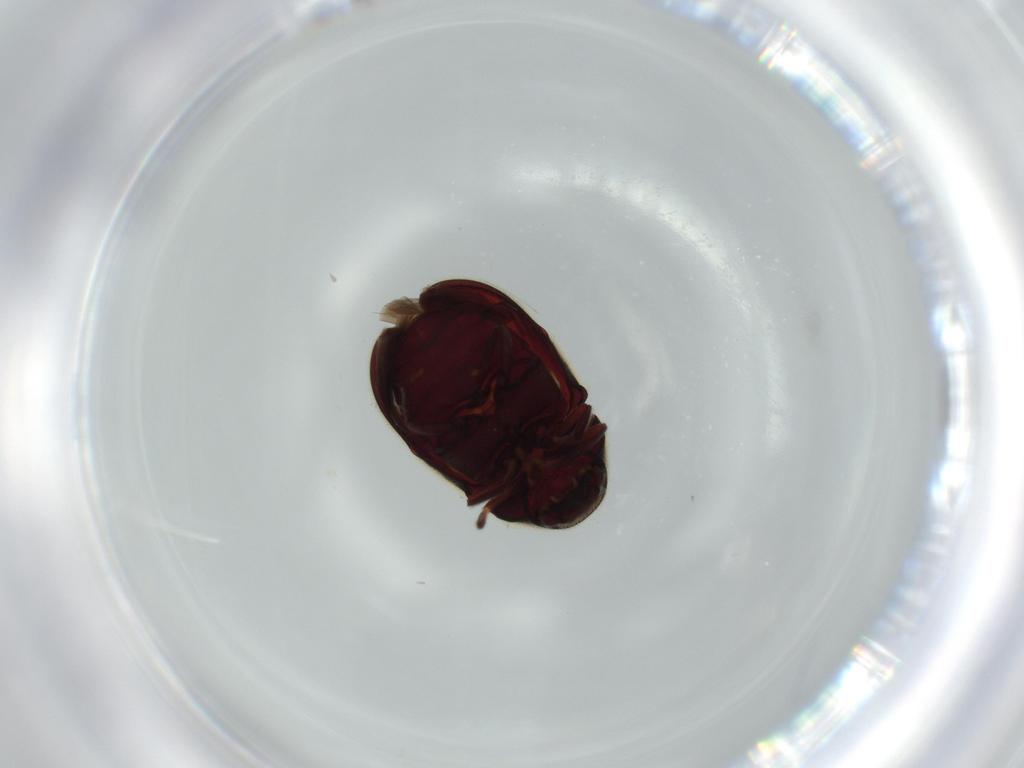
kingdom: Animalia
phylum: Arthropoda
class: Insecta
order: Coleoptera
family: Ptinidae
